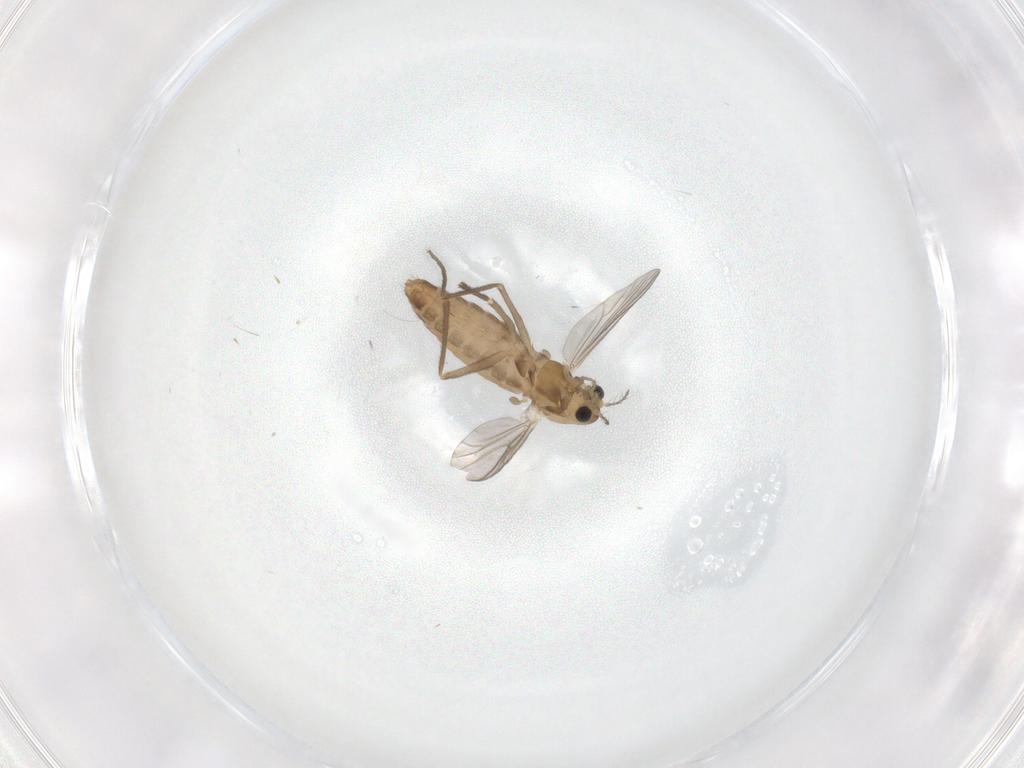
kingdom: Animalia
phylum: Arthropoda
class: Insecta
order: Diptera
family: Chironomidae
